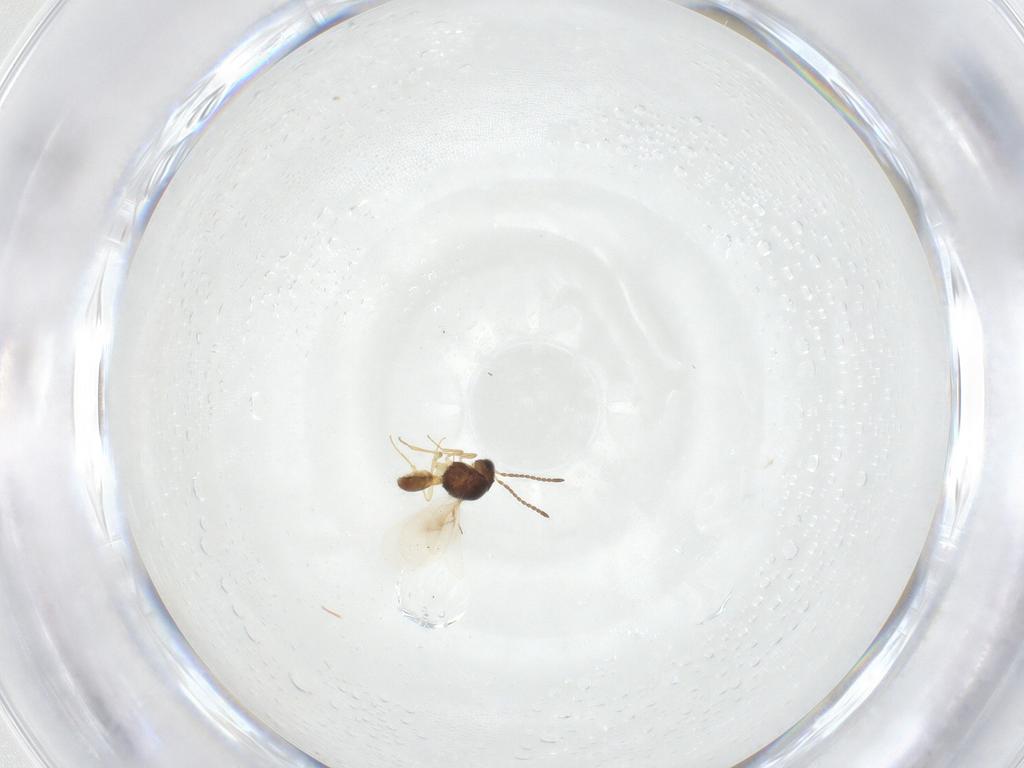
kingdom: Animalia
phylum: Arthropoda
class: Insecta
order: Hymenoptera
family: Scelionidae
